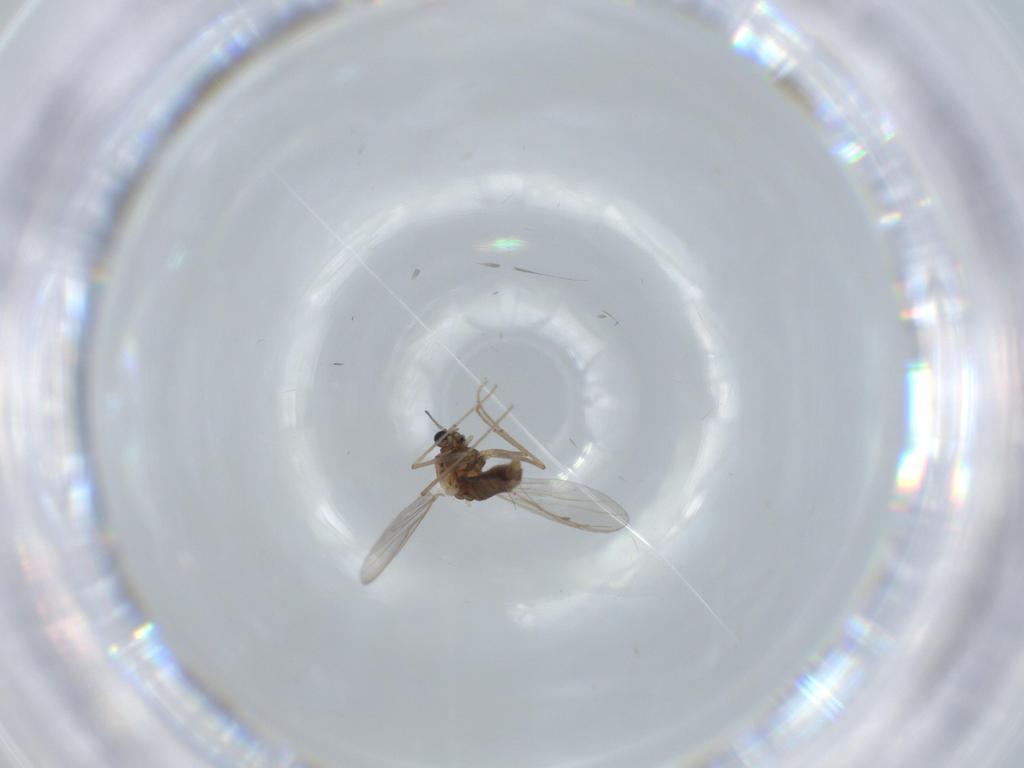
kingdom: Animalia
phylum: Arthropoda
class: Insecta
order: Diptera
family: Chironomidae
